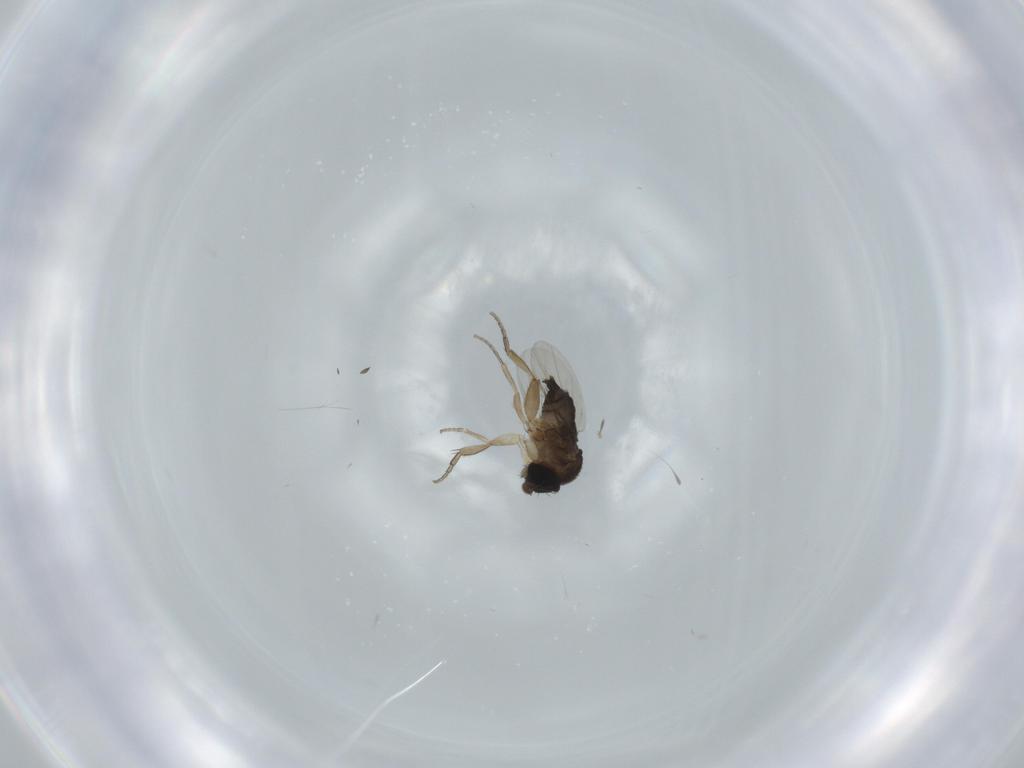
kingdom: Animalia
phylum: Arthropoda
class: Insecta
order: Diptera
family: Phoridae
